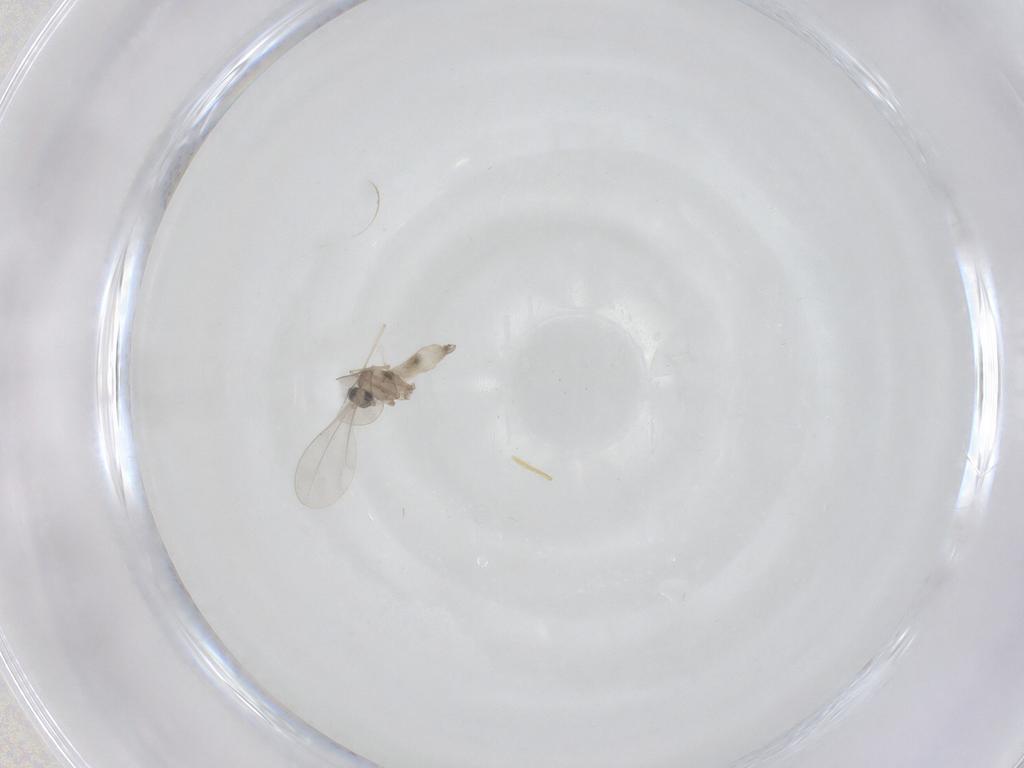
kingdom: Animalia
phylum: Arthropoda
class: Insecta
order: Diptera
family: Cecidomyiidae
